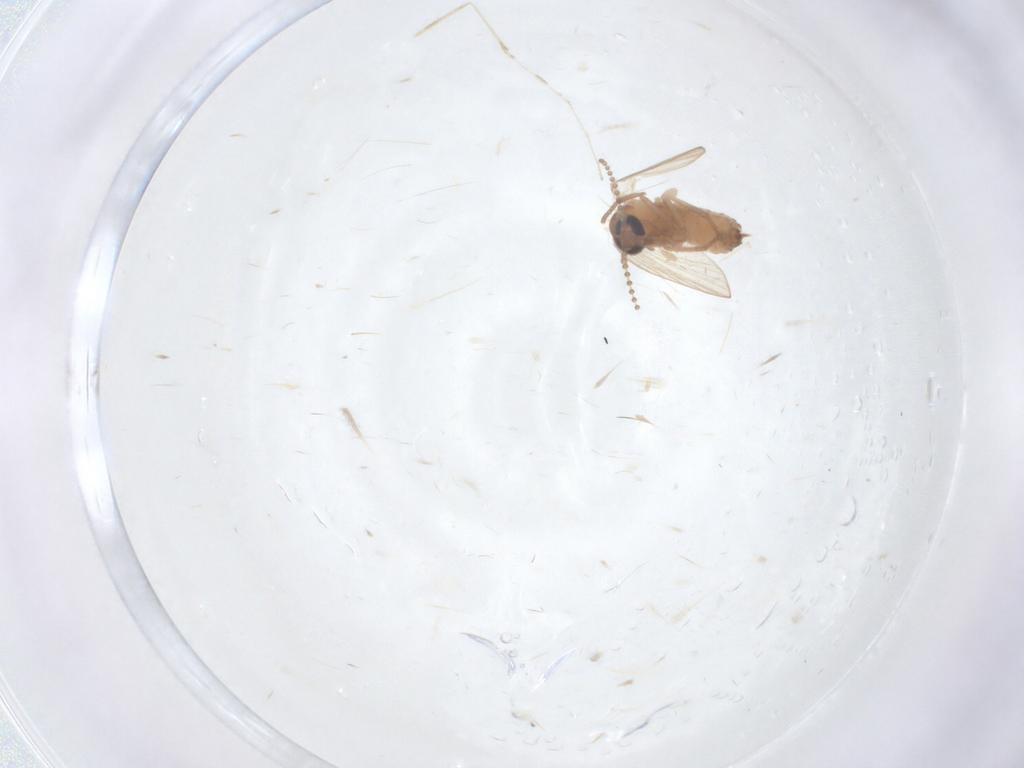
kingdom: Animalia
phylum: Arthropoda
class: Insecta
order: Diptera
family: Psychodidae
